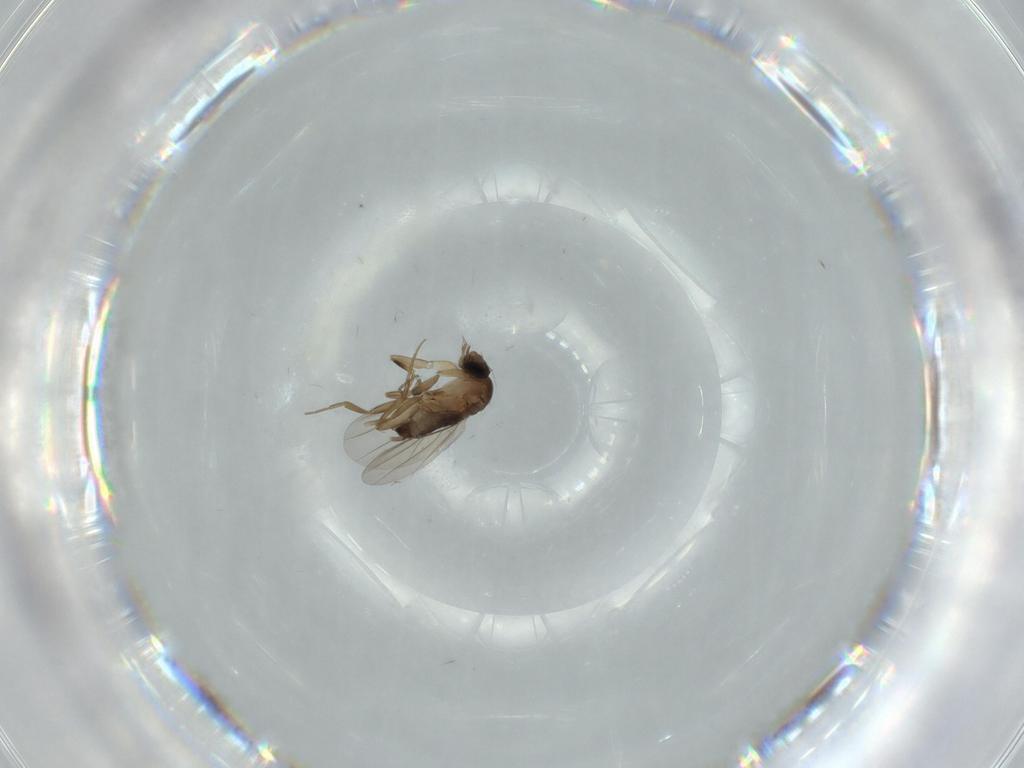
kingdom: Animalia
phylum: Arthropoda
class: Insecta
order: Diptera
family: Phoridae
